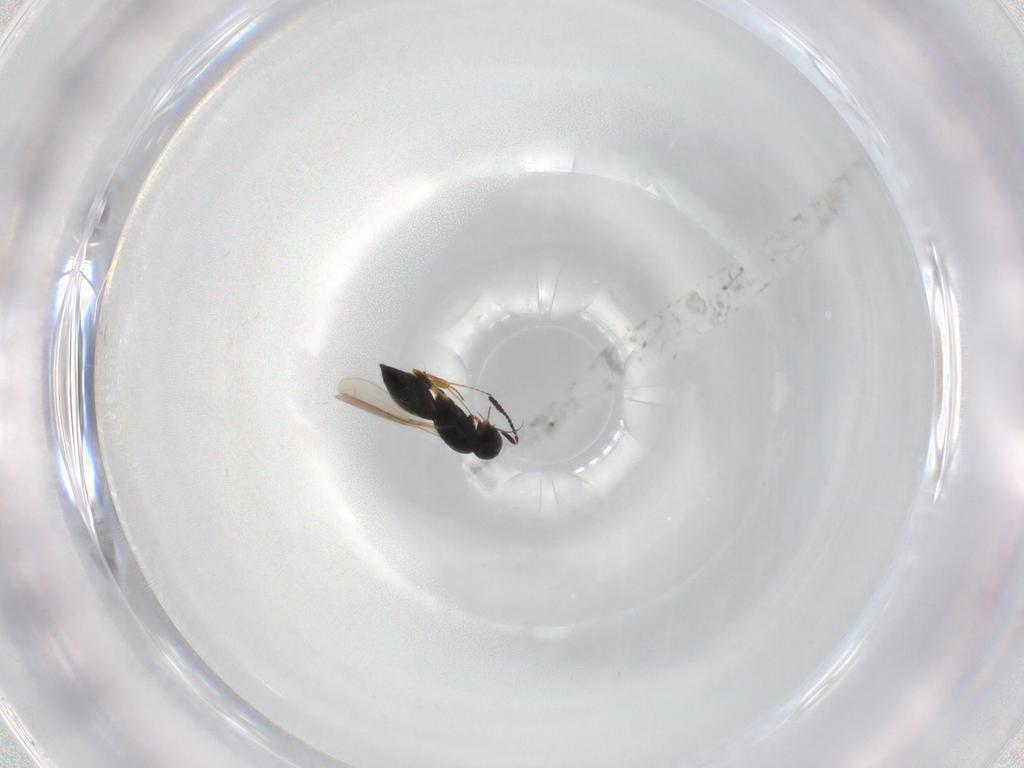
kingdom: Animalia
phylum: Arthropoda
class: Insecta
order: Hymenoptera
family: Scelionidae
